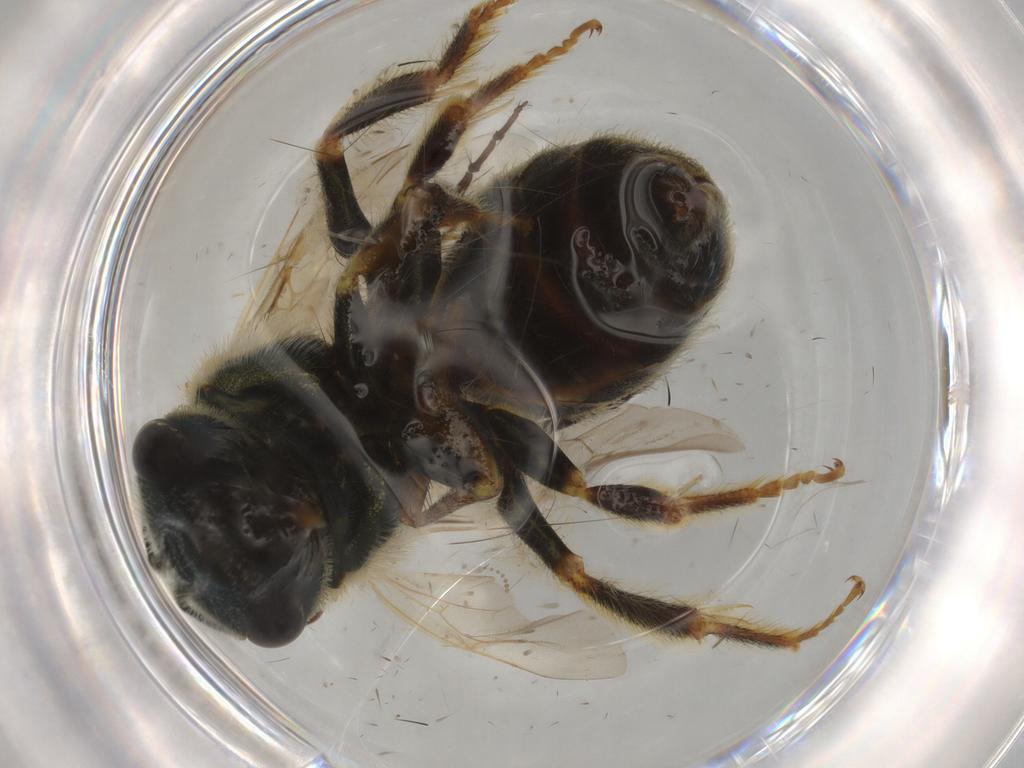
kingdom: Animalia
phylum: Arthropoda
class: Insecta
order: Hymenoptera
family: Halictidae
